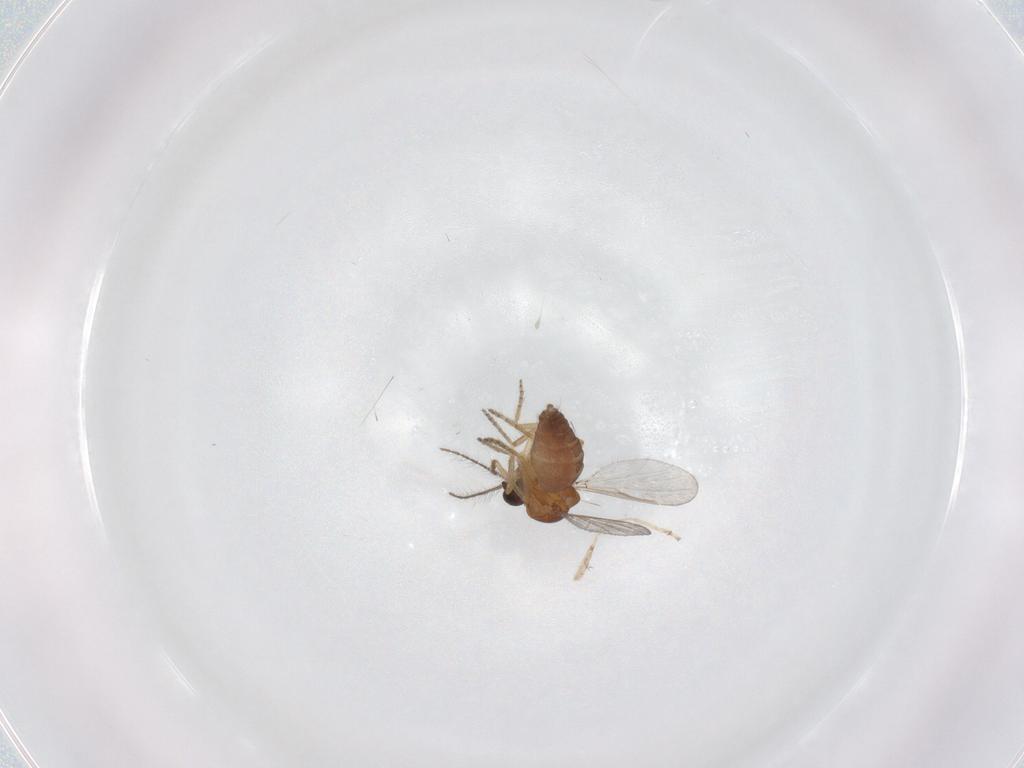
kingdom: Animalia
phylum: Arthropoda
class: Insecta
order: Diptera
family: Ceratopogonidae
